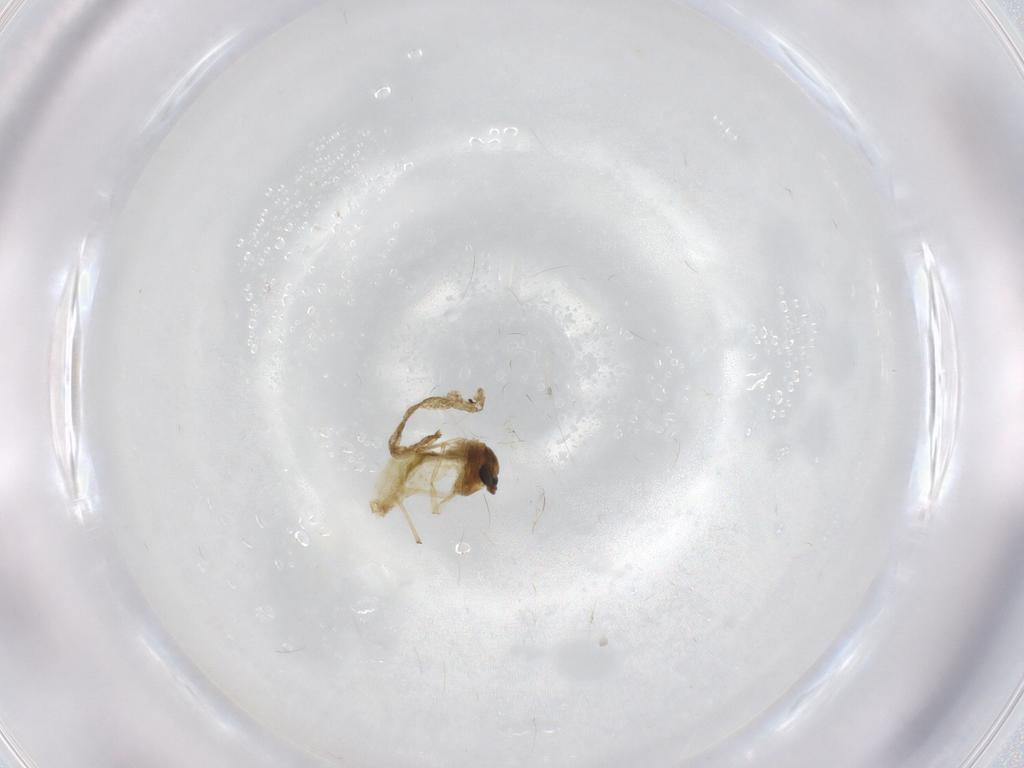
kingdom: Animalia
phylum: Arthropoda
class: Insecta
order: Diptera
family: Chaoboridae
